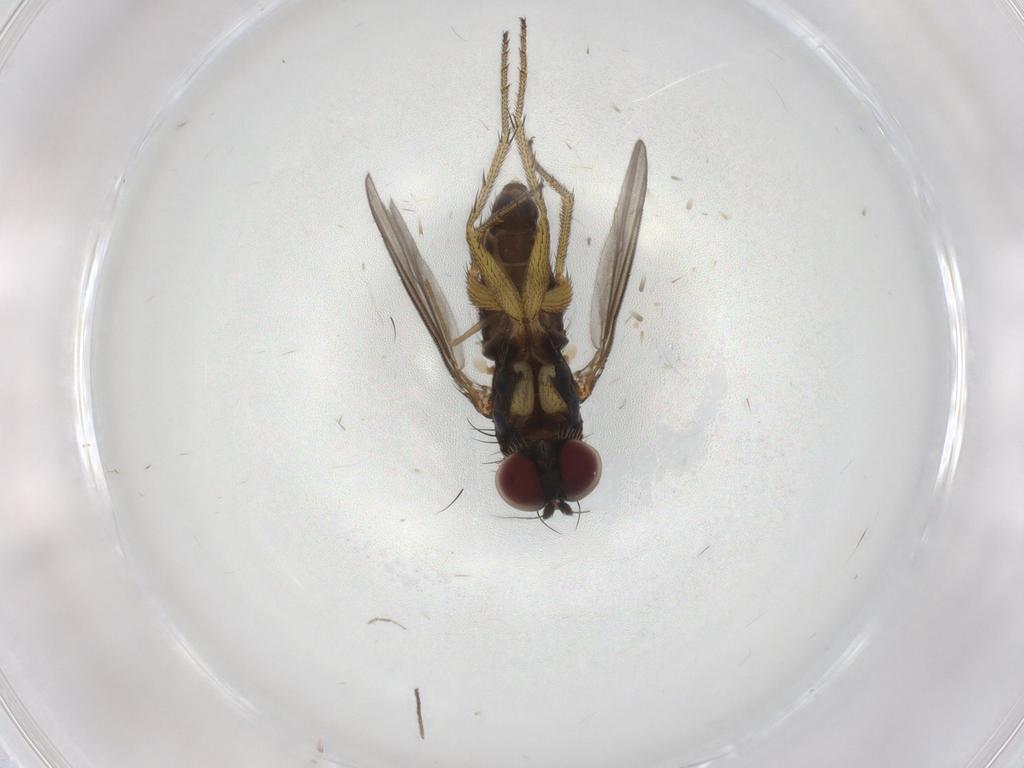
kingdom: Animalia
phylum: Arthropoda
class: Insecta
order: Diptera
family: Chironomidae
